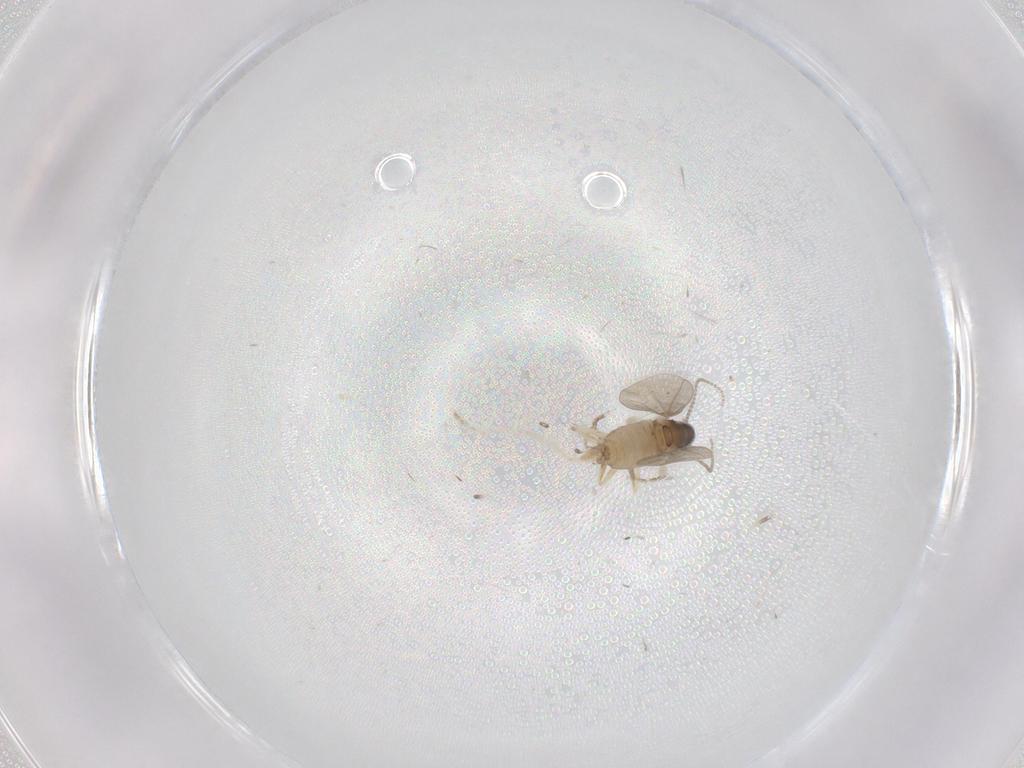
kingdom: Animalia
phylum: Arthropoda
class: Insecta
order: Diptera
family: Cecidomyiidae
